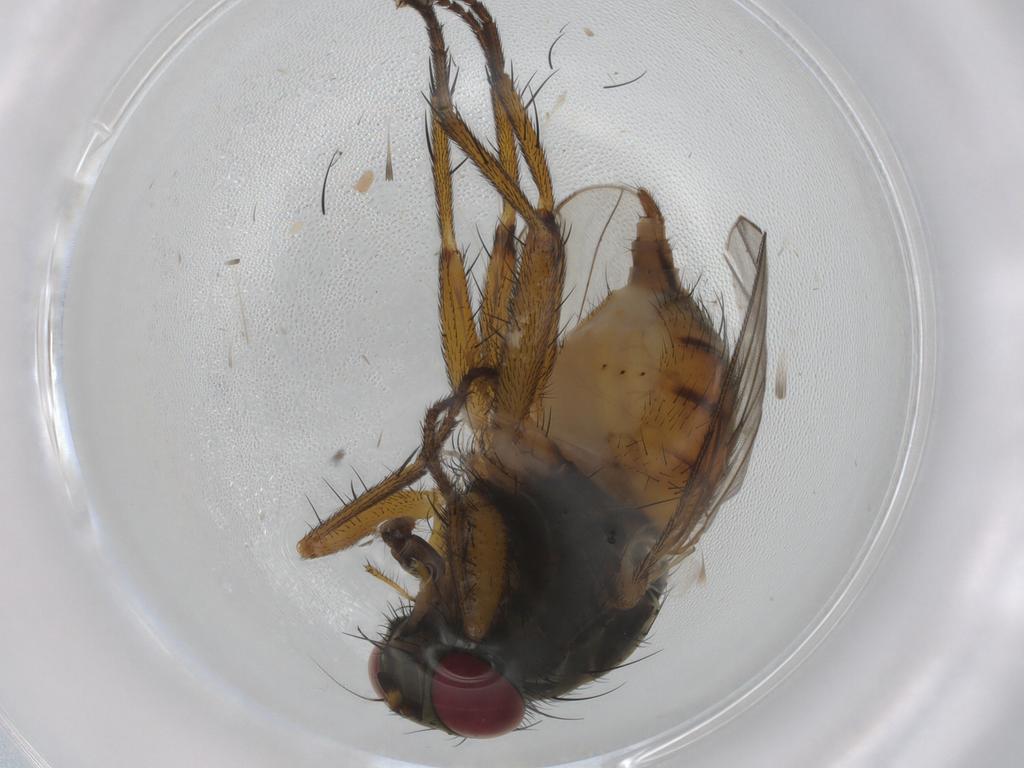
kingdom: Animalia
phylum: Arthropoda
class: Insecta
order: Diptera
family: Muscidae
